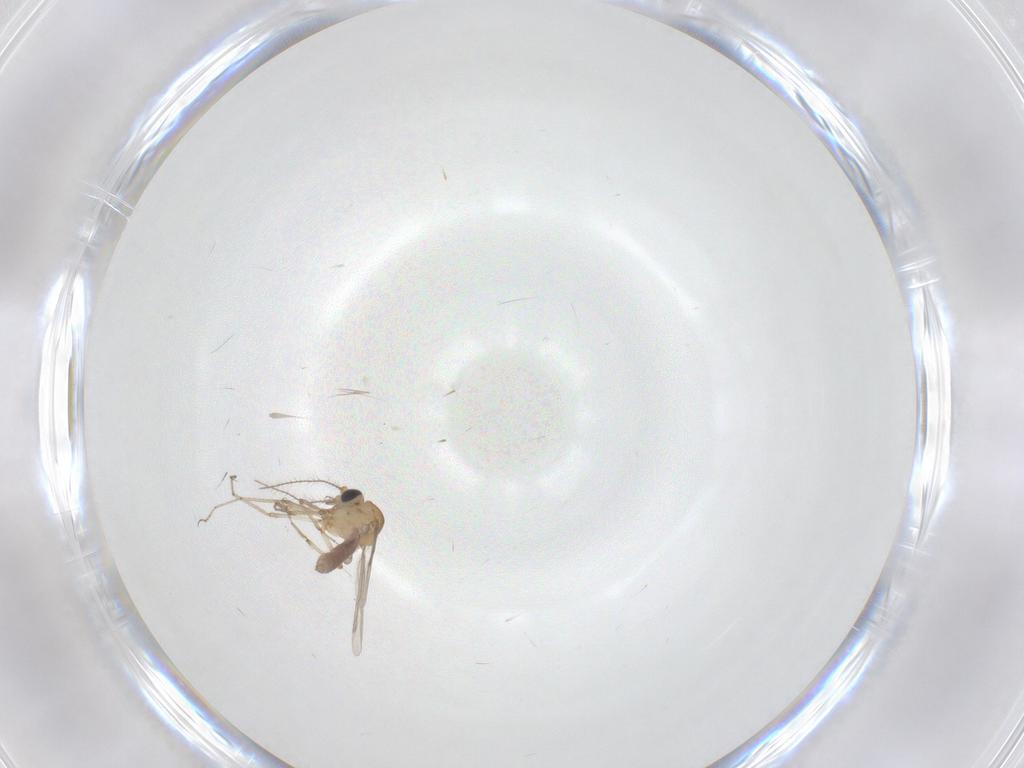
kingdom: Animalia
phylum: Arthropoda
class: Insecta
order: Diptera
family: Ceratopogonidae
